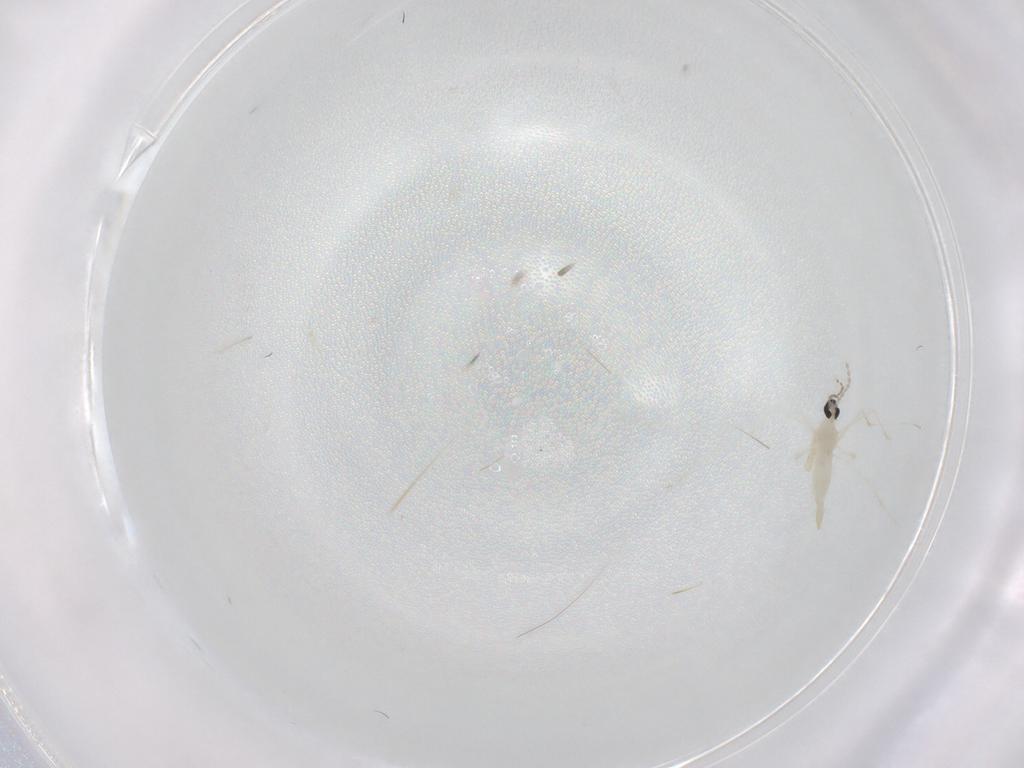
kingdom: Animalia
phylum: Arthropoda
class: Insecta
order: Diptera
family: Cecidomyiidae
